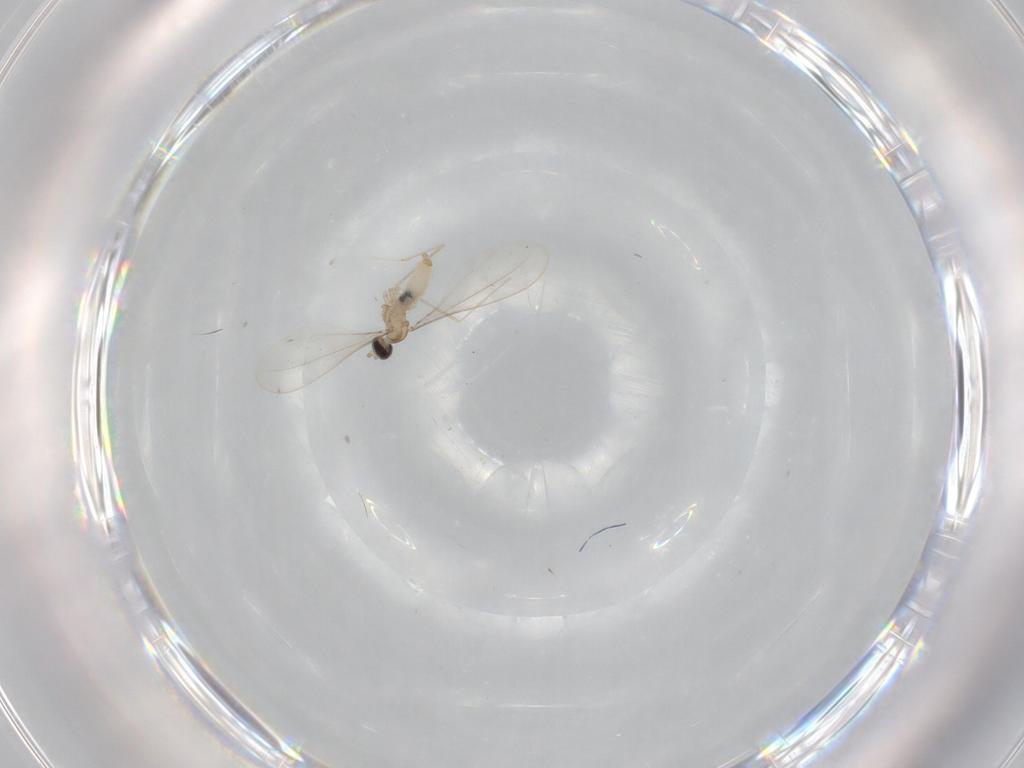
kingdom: Animalia
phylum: Arthropoda
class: Insecta
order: Diptera
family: Cecidomyiidae
